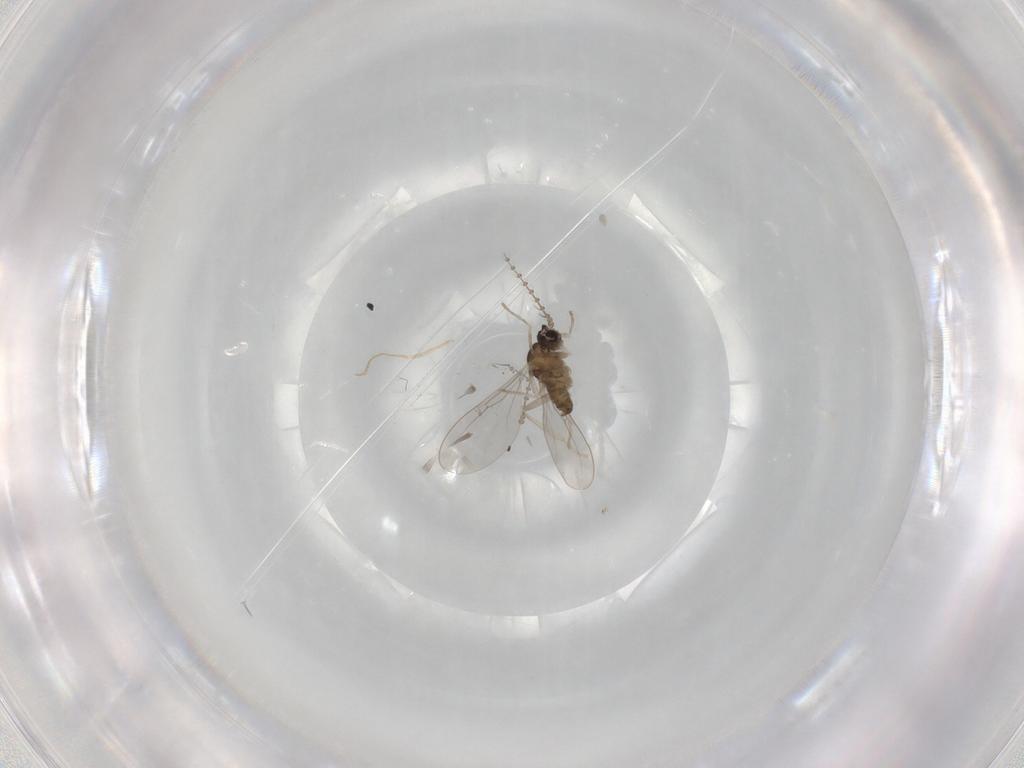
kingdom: Animalia
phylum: Arthropoda
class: Insecta
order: Diptera
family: Cecidomyiidae
